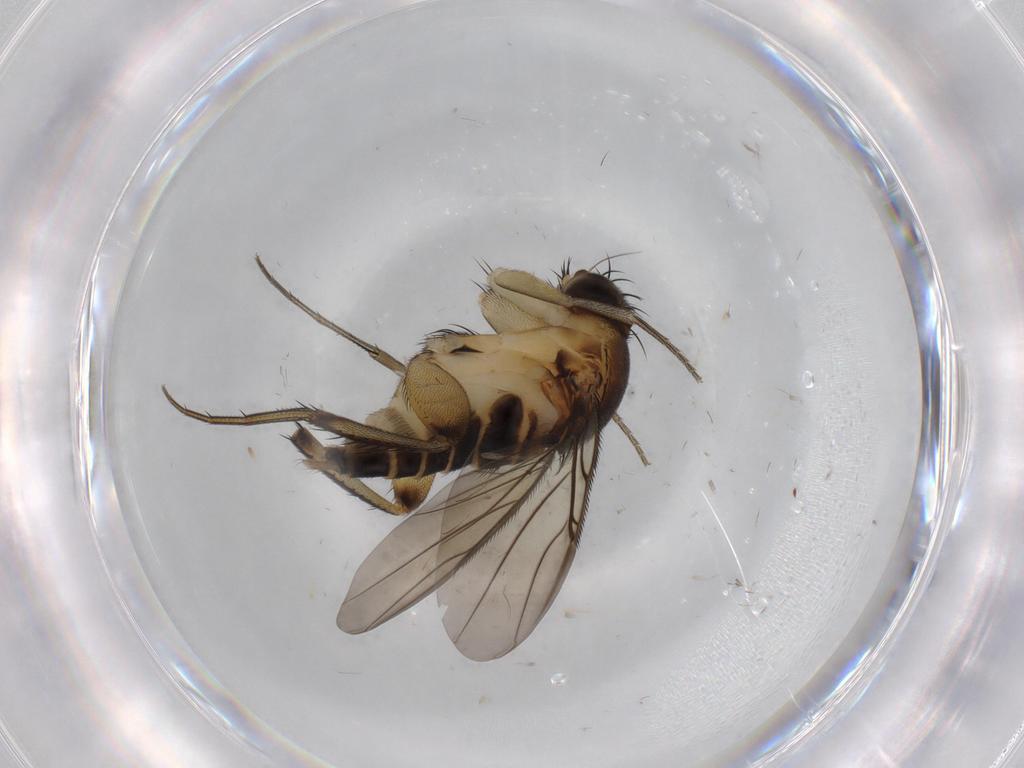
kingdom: Animalia
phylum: Arthropoda
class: Insecta
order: Diptera
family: Phoridae
